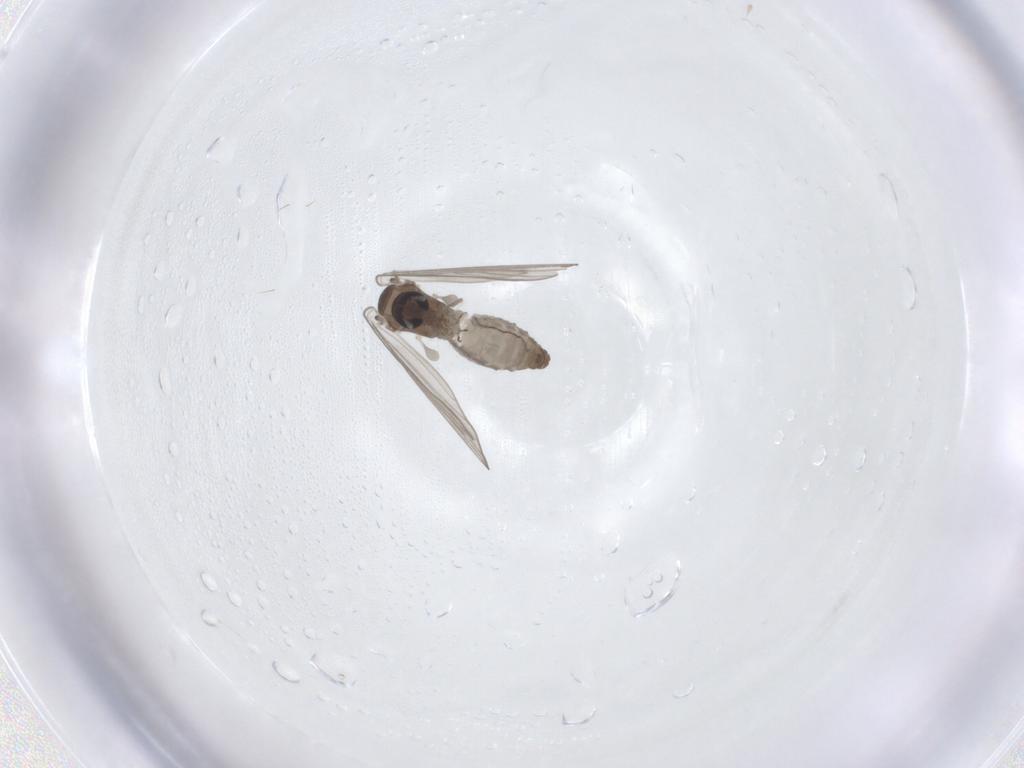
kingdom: Animalia
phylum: Arthropoda
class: Insecta
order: Diptera
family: Psychodidae
